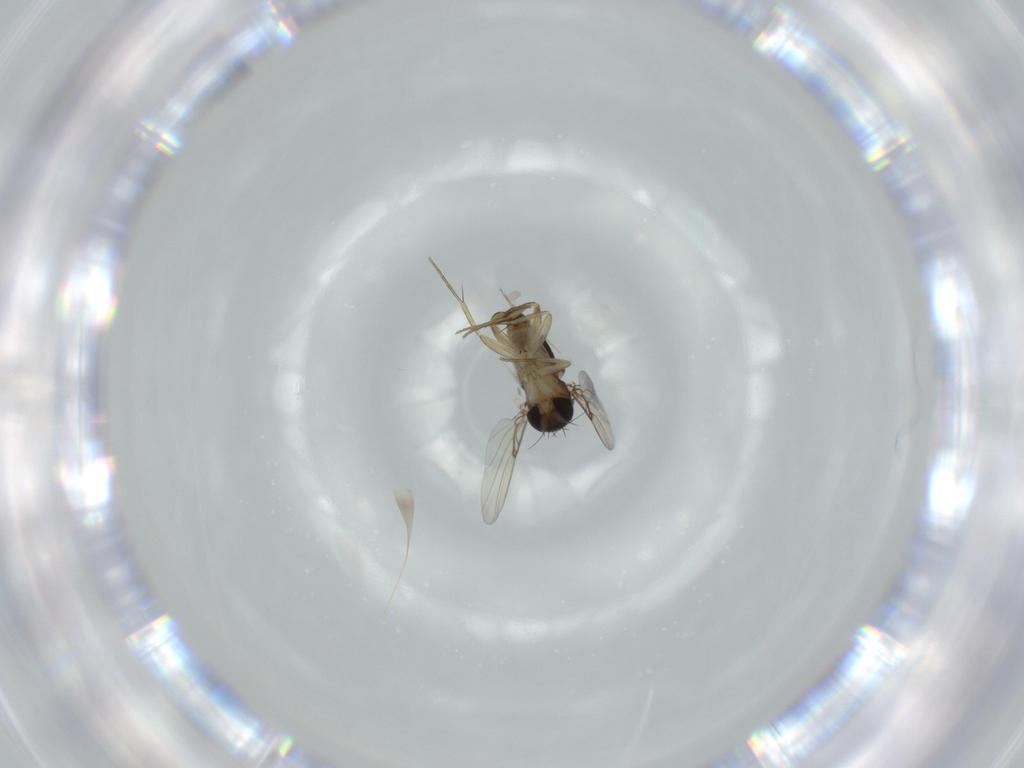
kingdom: Animalia
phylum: Arthropoda
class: Insecta
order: Diptera
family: Phoridae
